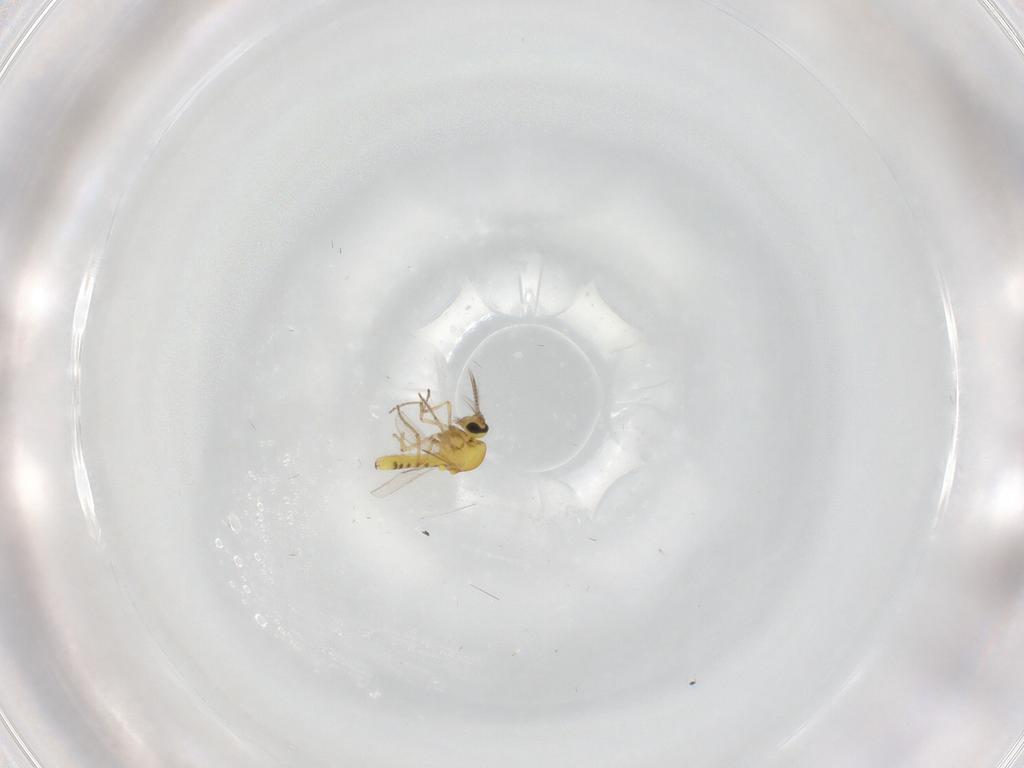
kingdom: Animalia
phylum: Arthropoda
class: Insecta
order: Diptera
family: Ceratopogonidae
